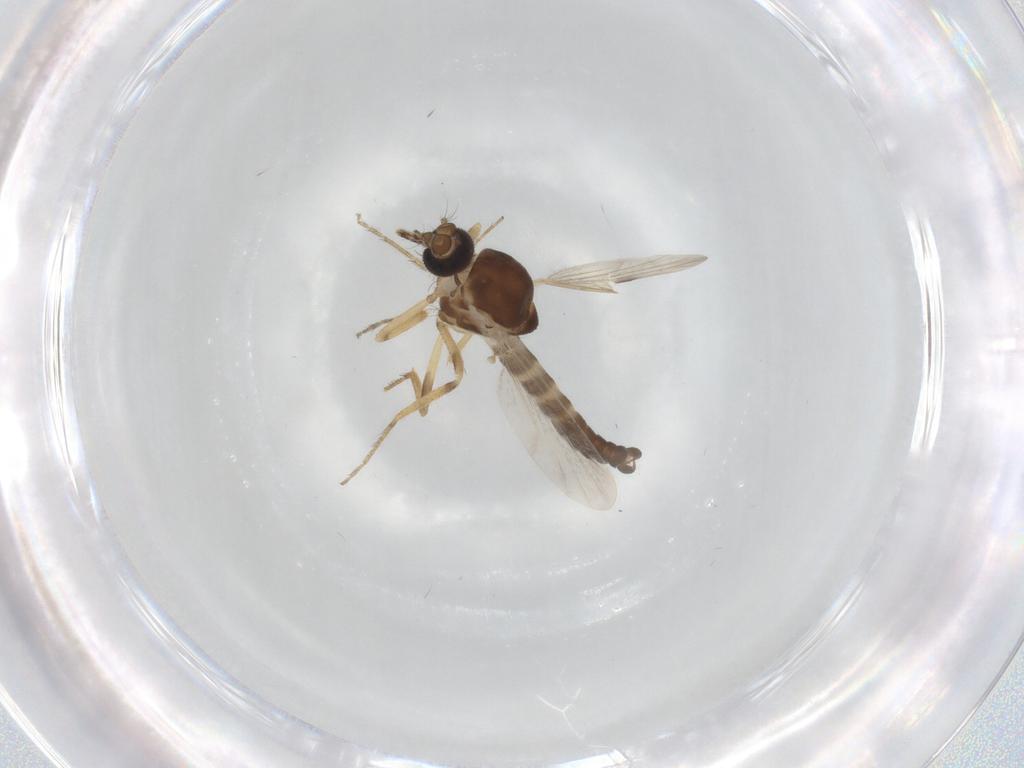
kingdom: Animalia
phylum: Arthropoda
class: Insecta
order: Diptera
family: Ceratopogonidae
